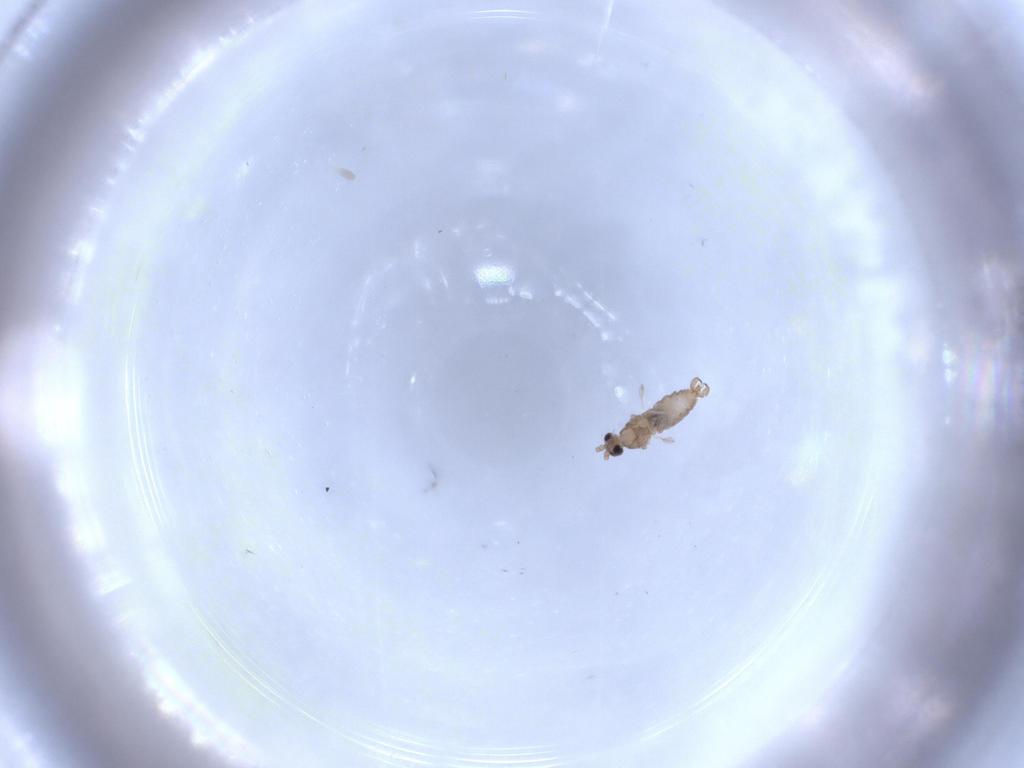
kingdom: Animalia
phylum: Arthropoda
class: Insecta
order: Diptera
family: Cecidomyiidae
